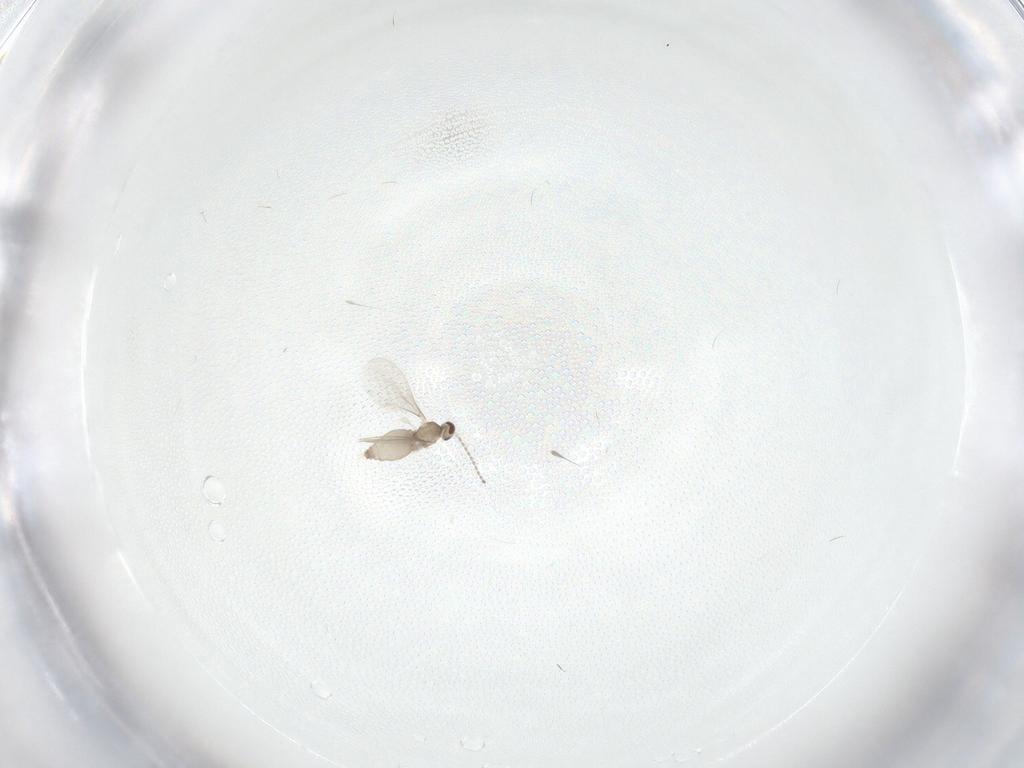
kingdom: Animalia
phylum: Arthropoda
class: Insecta
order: Diptera
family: Cecidomyiidae
